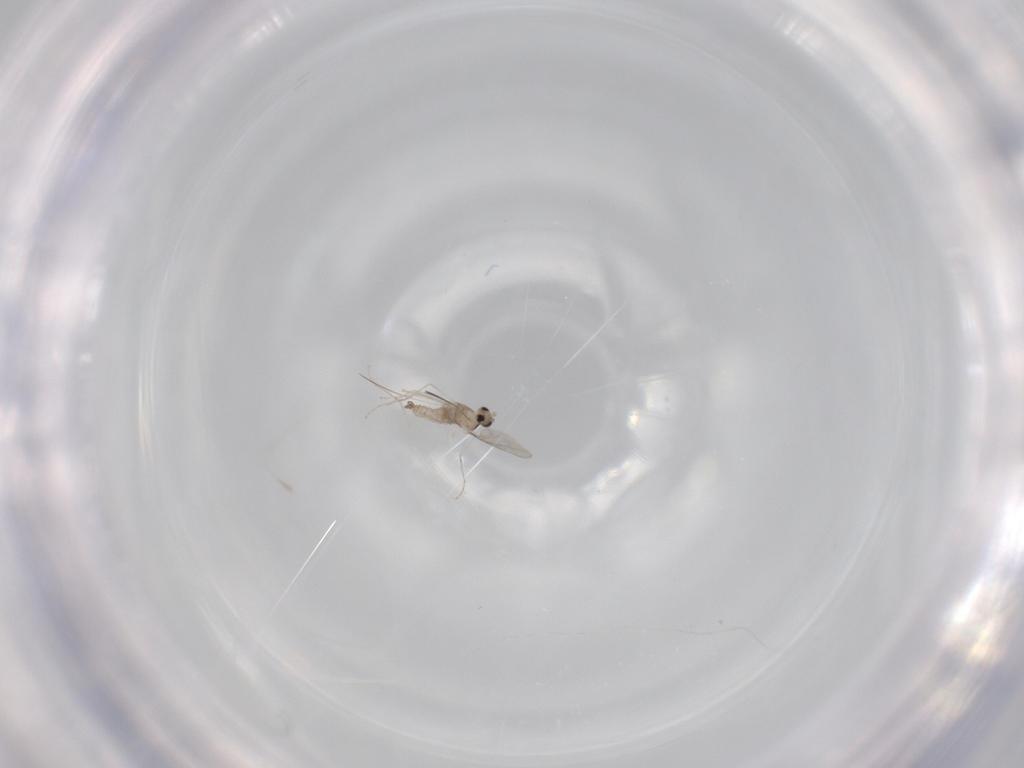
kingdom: Animalia
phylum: Arthropoda
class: Insecta
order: Diptera
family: Cecidomyiidae
